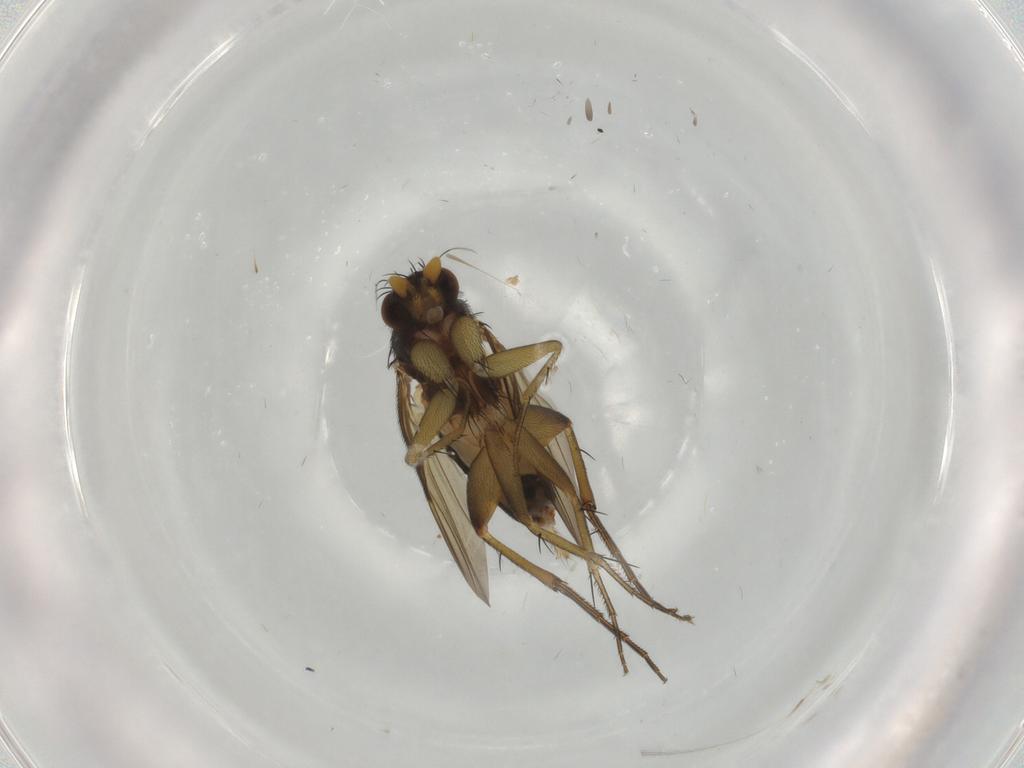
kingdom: Animalia
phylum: Arthropoda
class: Insecta
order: Diptera
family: Phoridae
